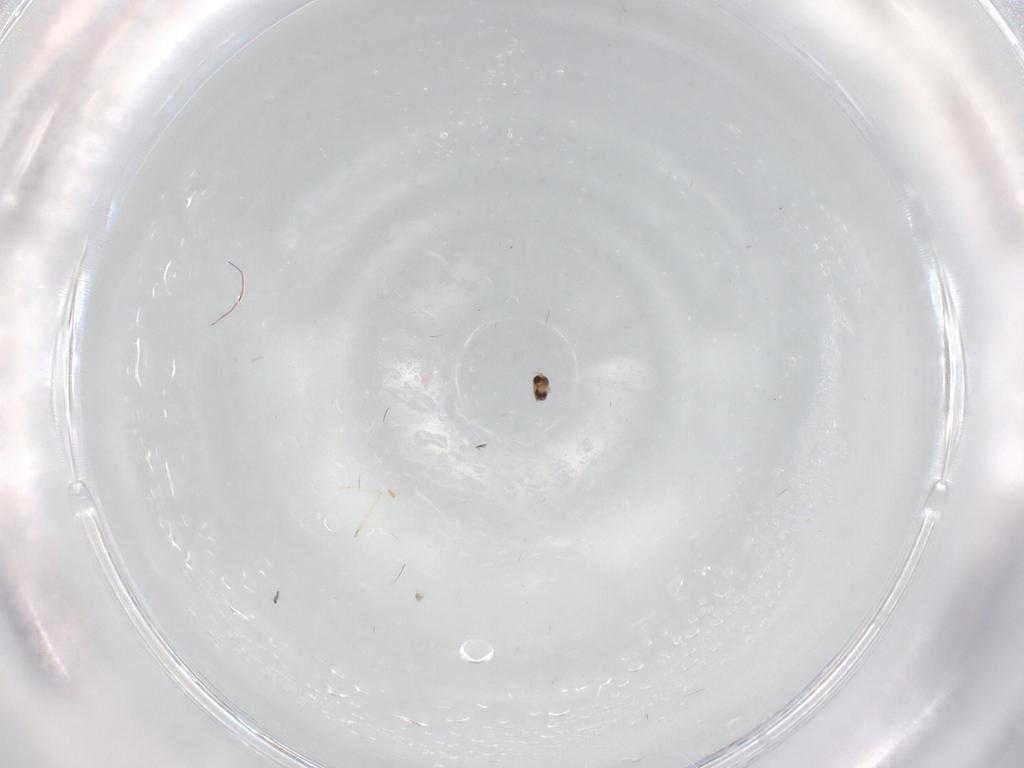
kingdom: Animalia
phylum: Arthropoda
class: Insecta
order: Diptera
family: Sciaridae
